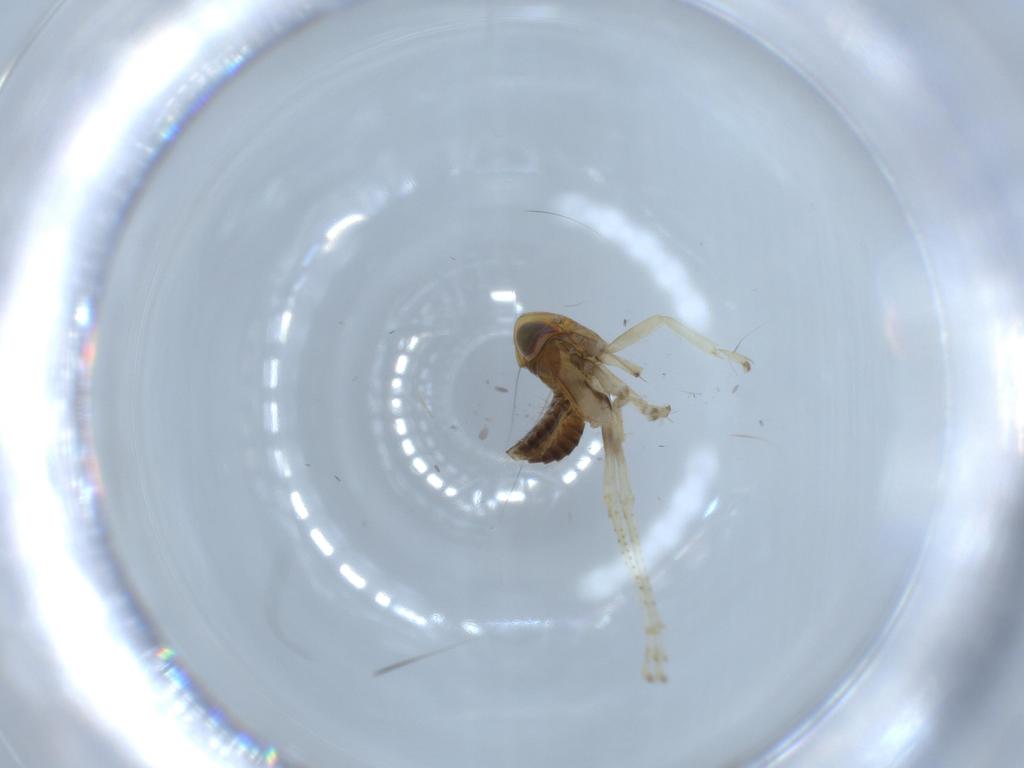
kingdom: Animalia
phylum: Arthropoda
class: Insecta
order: Hemiptera
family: Cicadellidae
